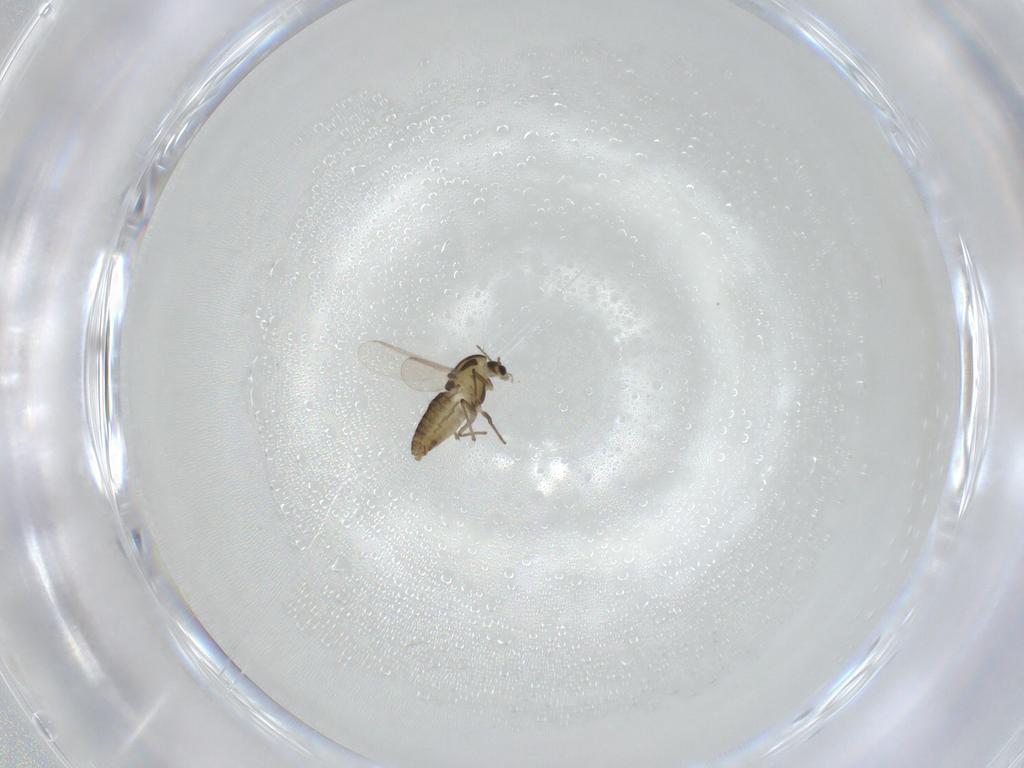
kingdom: Animalia
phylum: Arthropoda
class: Insecta
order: Diptera
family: Chironomidae
